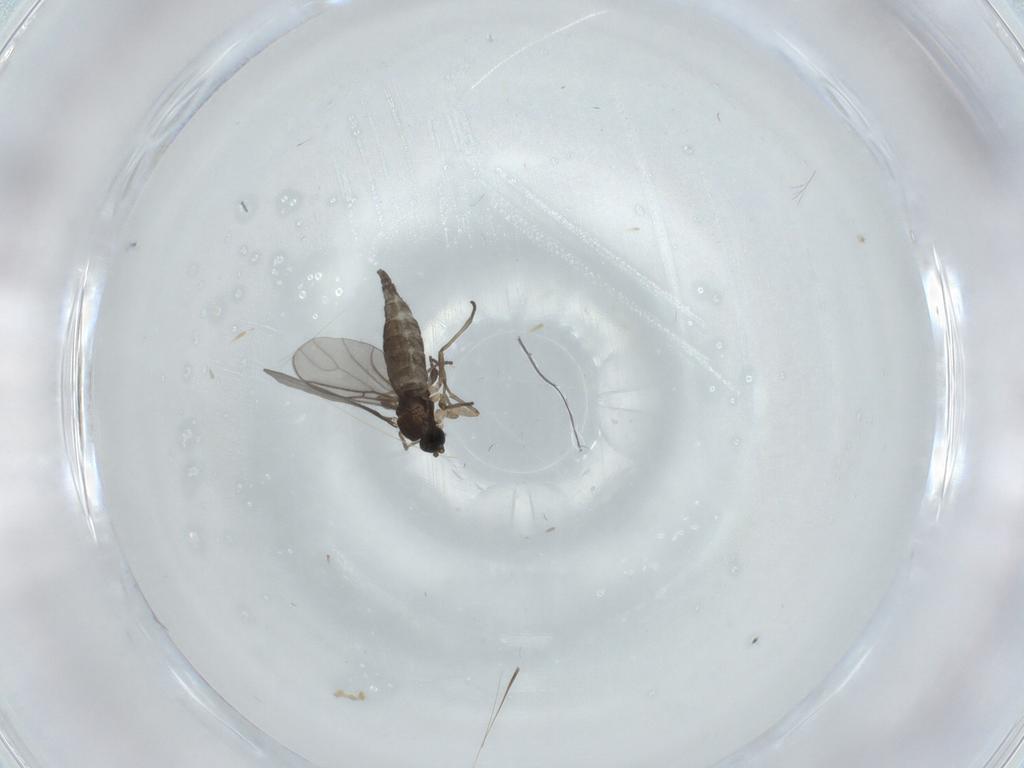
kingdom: Animalia
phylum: Arthropoda
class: Insecta
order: Diptera
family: Sciaridae
